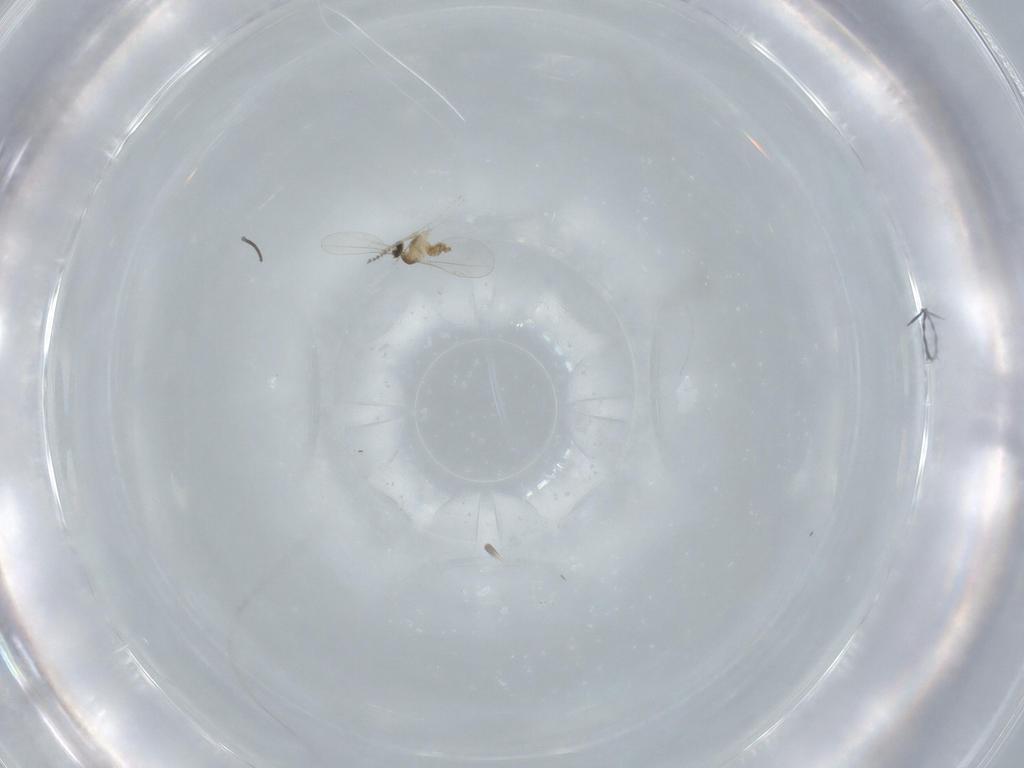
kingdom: Animalia
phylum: Arthropoda
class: Insecta
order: Diptera
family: Cecidomyiidae
